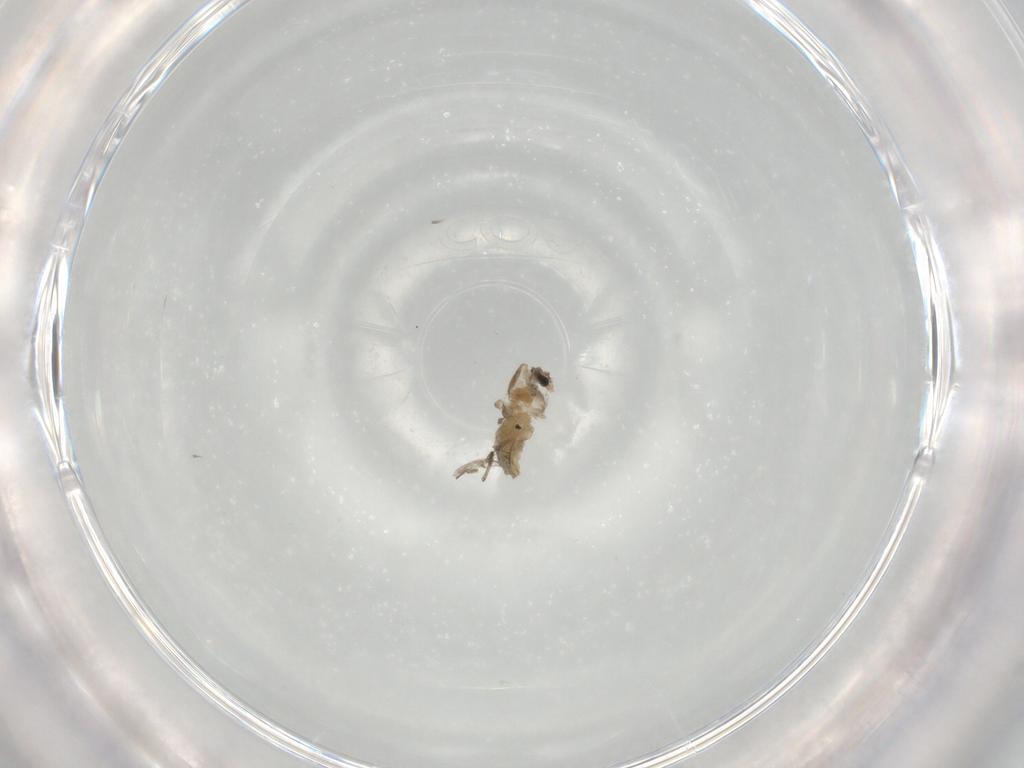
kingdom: Animalia
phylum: Arthropoda
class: Insecta
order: Diptera
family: Chironomidae
